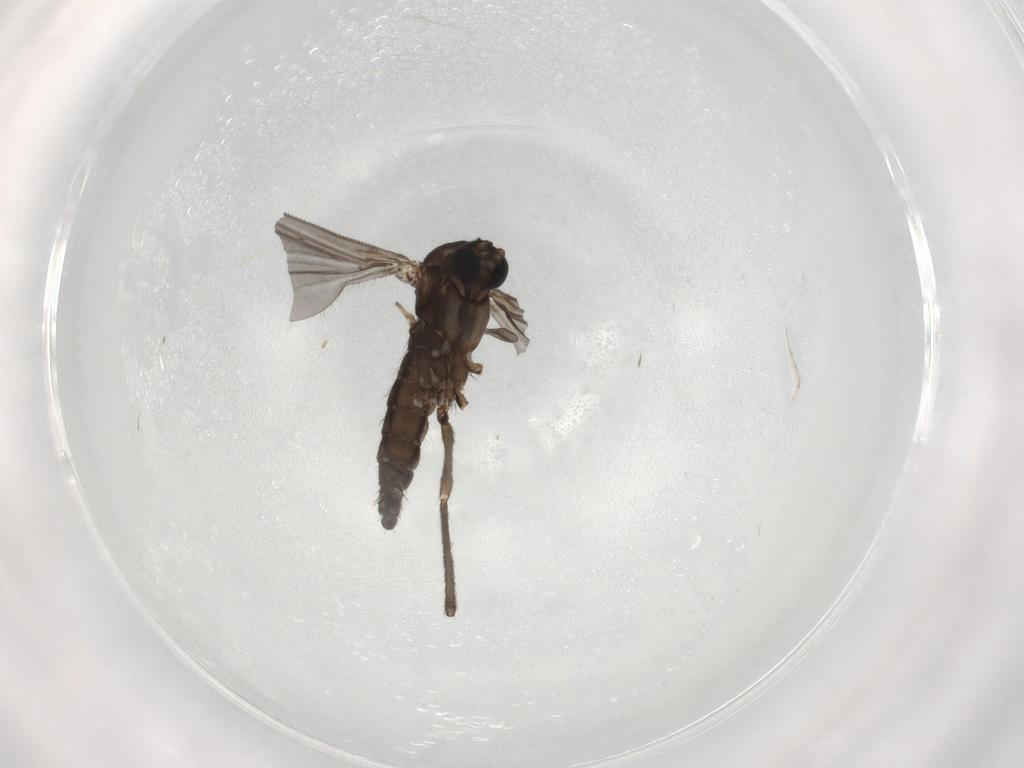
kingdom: Animalia
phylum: Arthropoda
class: Insecta
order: Diptera
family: Sciaridae
